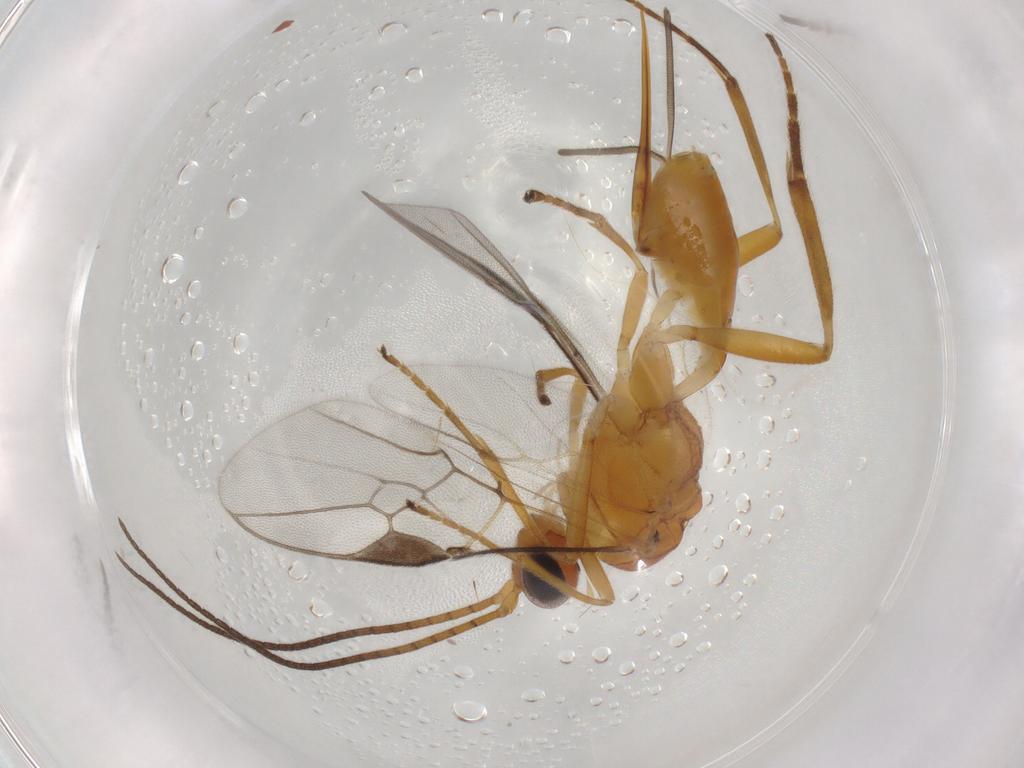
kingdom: Animalia
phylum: Arthropoda
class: Insecta
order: Hymenoptera
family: Braconidae
